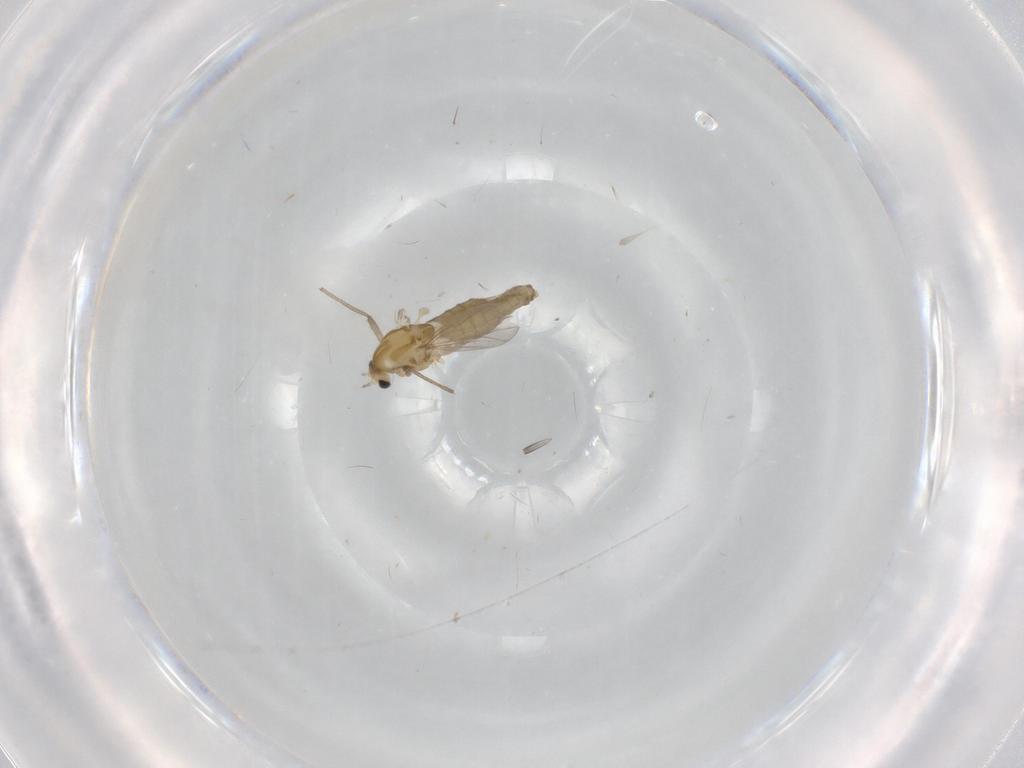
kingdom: Animalia
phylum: Arthropoda
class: Insecta
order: Diptera
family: Chironomidae
